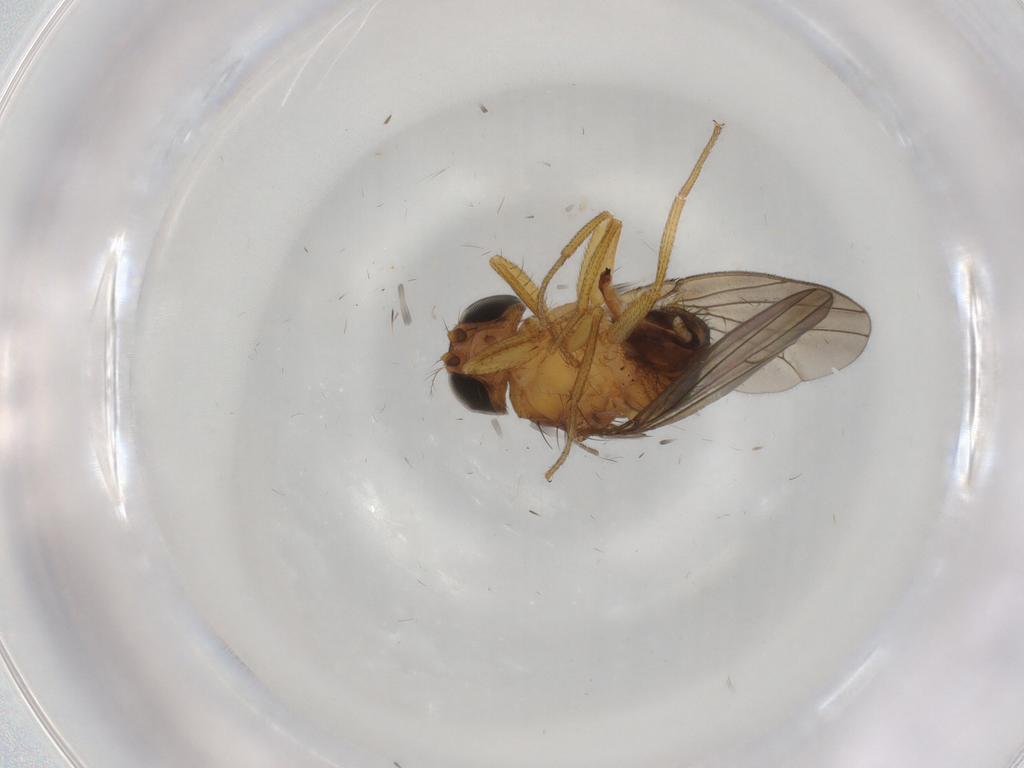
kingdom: Animalia
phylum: Arthropoda
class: Insecta
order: Diptera
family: Drosophilidae
